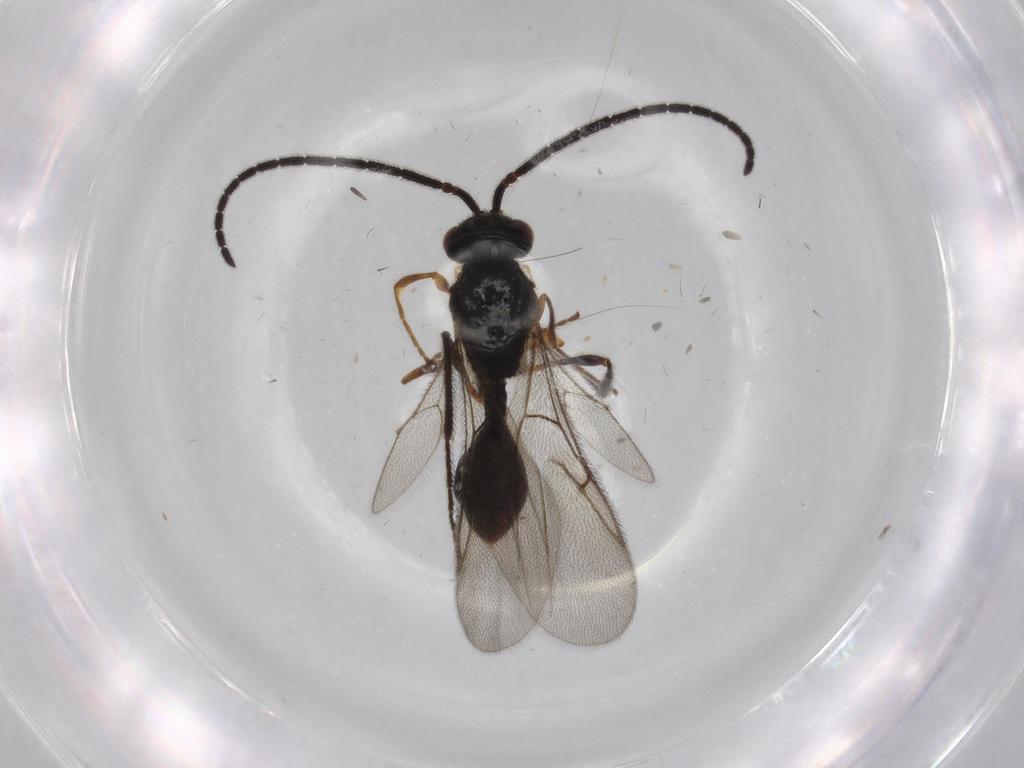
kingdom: Animalia
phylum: Arthropoda
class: Insecta
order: Hymenoptera
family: Diapriidae
